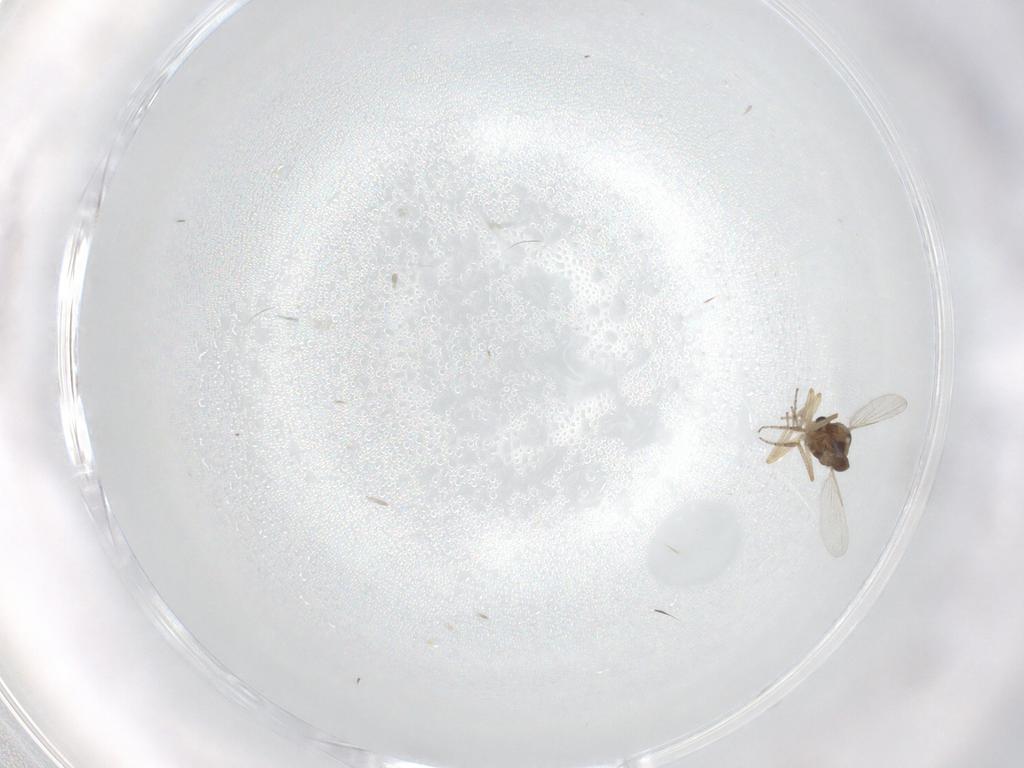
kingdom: Animalia
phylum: Arthropoda
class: Insecta
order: Diptera
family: Ceratopogonidae
